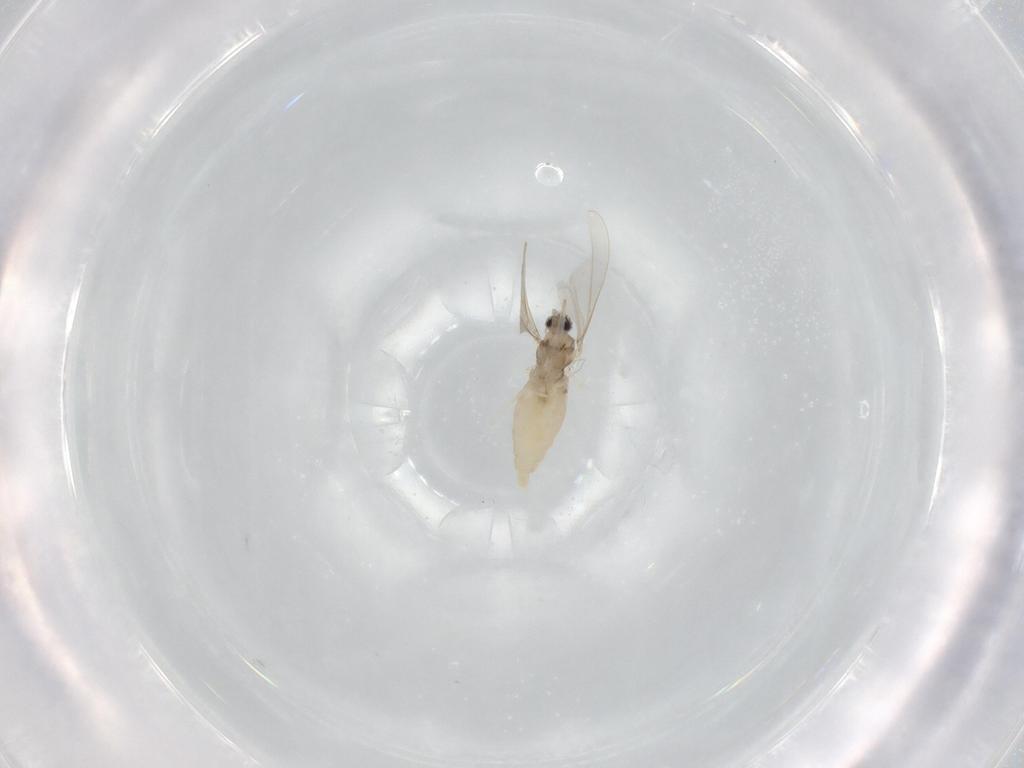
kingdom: Animalia
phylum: Arthropoda
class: Insecta
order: Diptera
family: Cecidomyiidae
